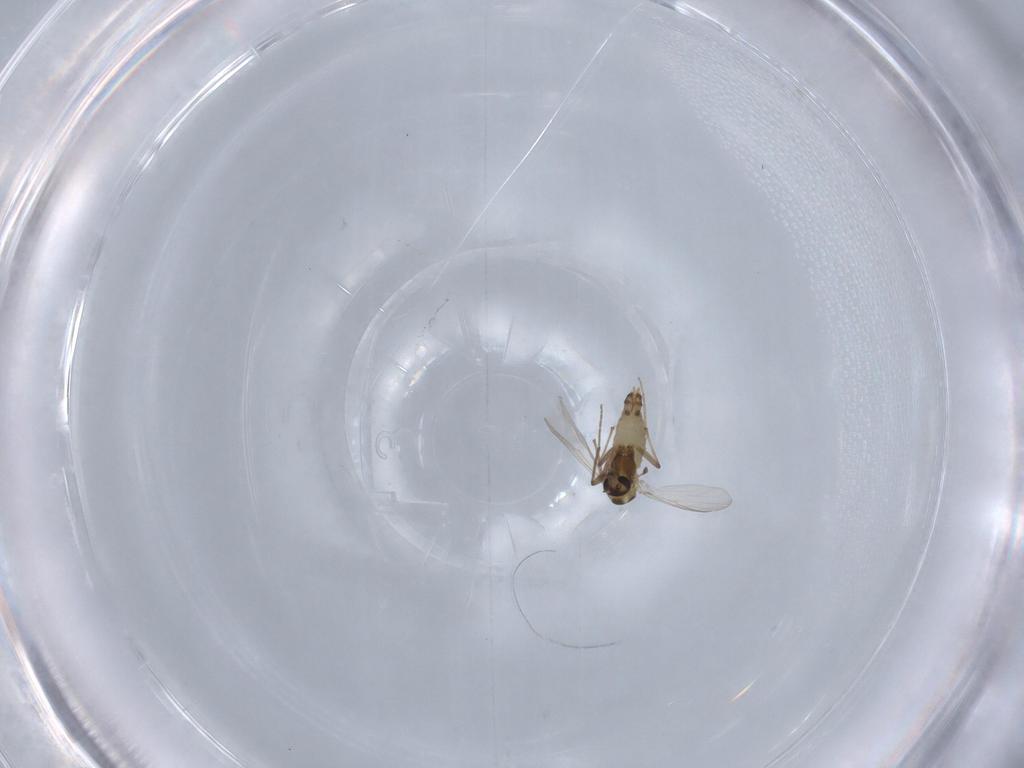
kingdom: Animalia
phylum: Arthropoda
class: Insecta
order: Diptera
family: Chironomidae
